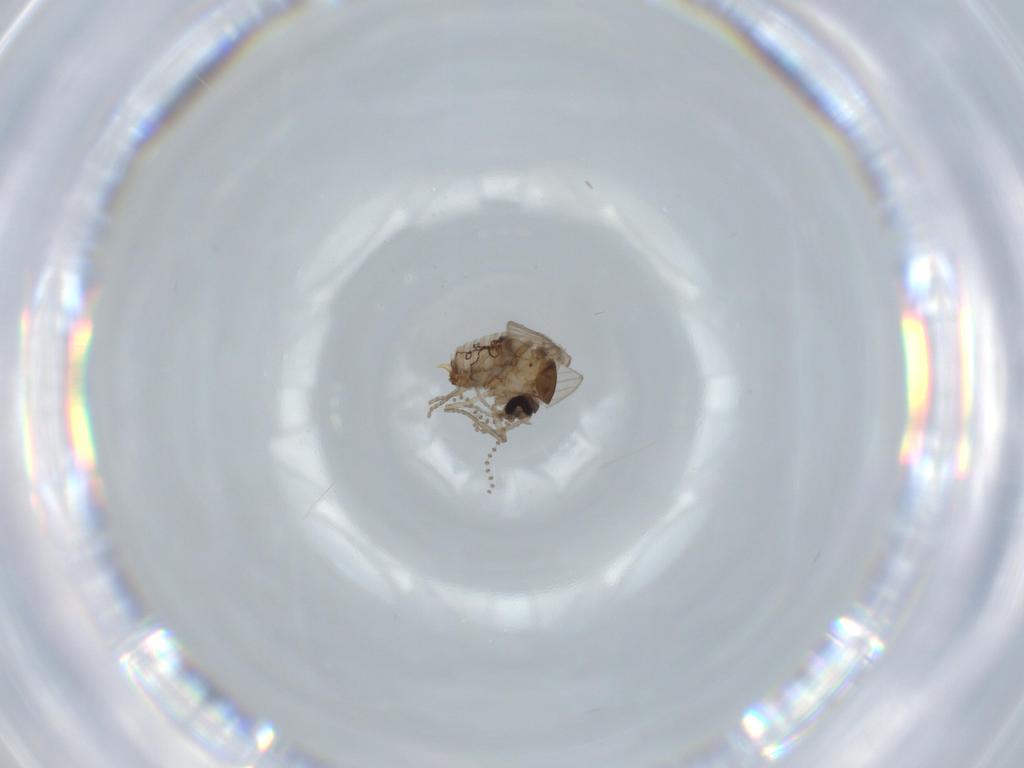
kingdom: Animalia
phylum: Arthropoda
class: Insecta
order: Diptera
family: Psychodidae
